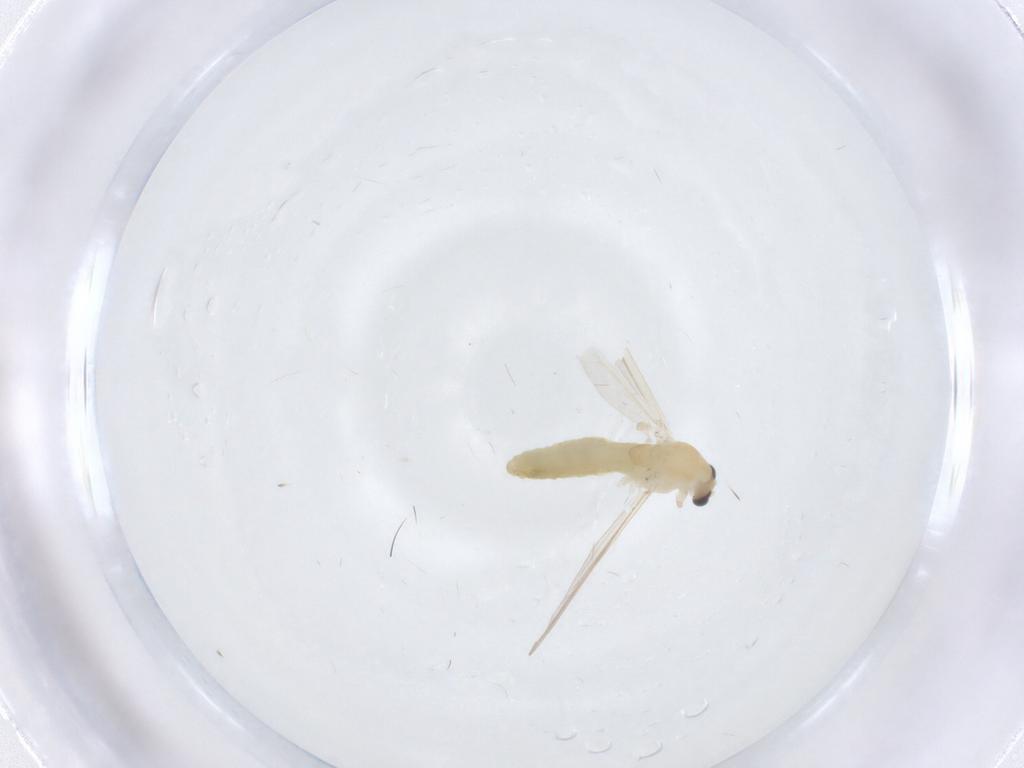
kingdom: Animalia
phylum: Arthropoda
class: Insecta
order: Diptera
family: Chironomidae
